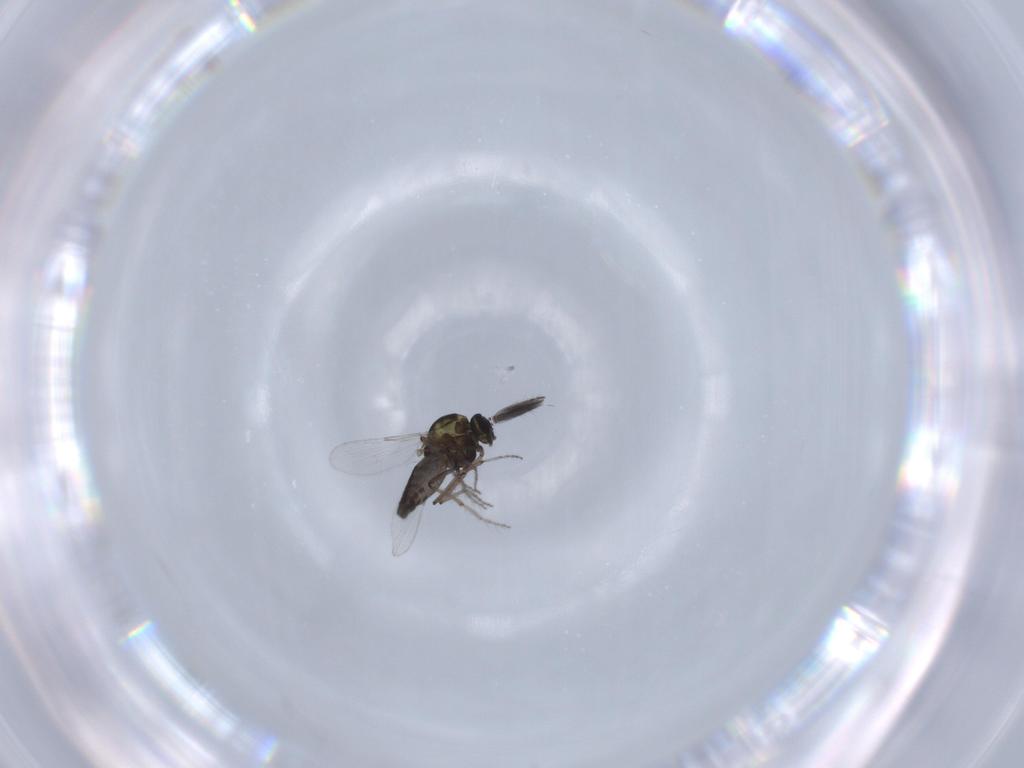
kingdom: Animalia
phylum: Arthropoda
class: Insecta
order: Diptera
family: Ceratopogonidae
